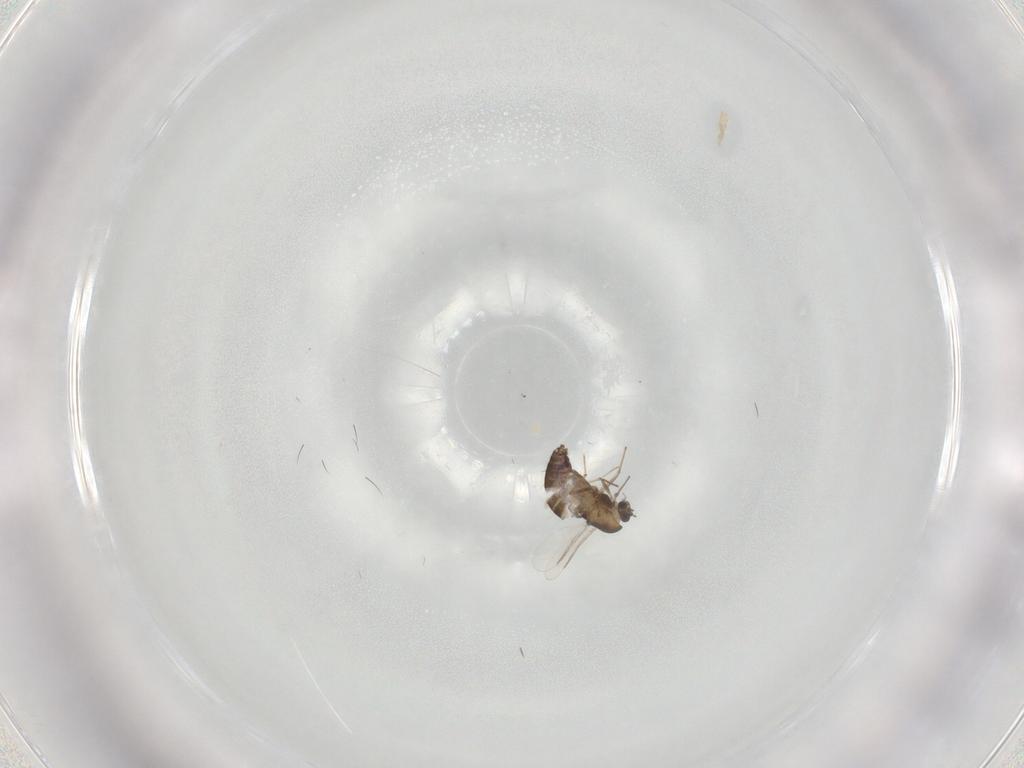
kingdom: Animalia
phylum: Arthropoda
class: Insecta
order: Diptera
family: Chironomidae
